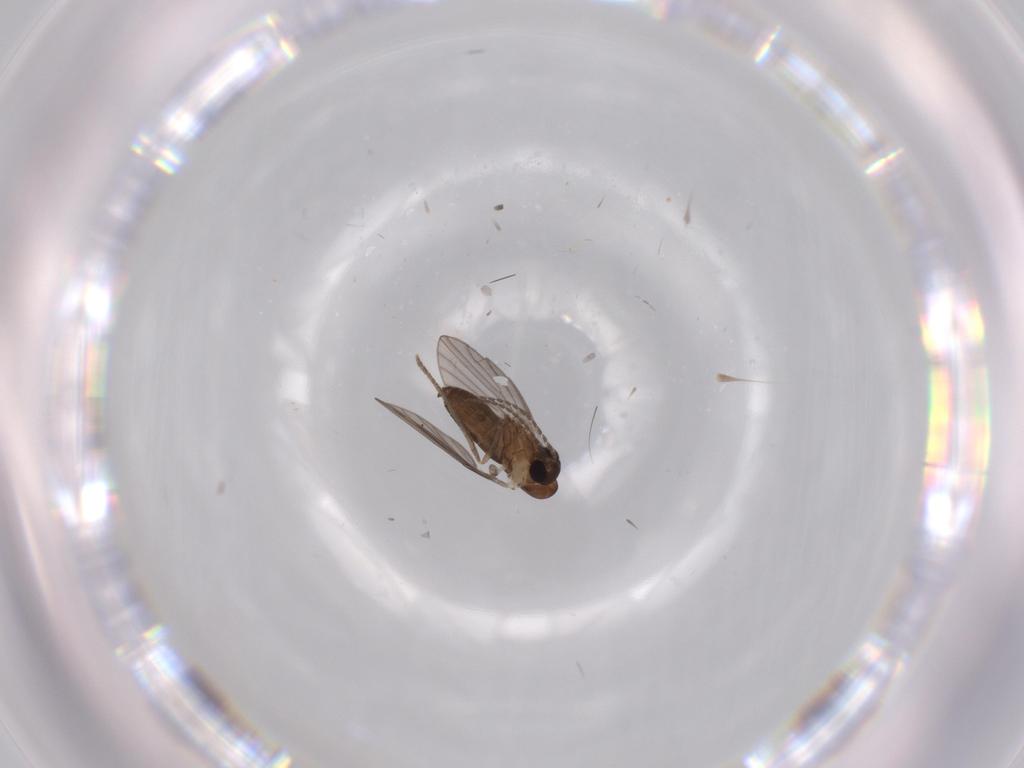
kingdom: Animalia
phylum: Arthropoda
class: Insecta
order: Diptera
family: Psychodidae
